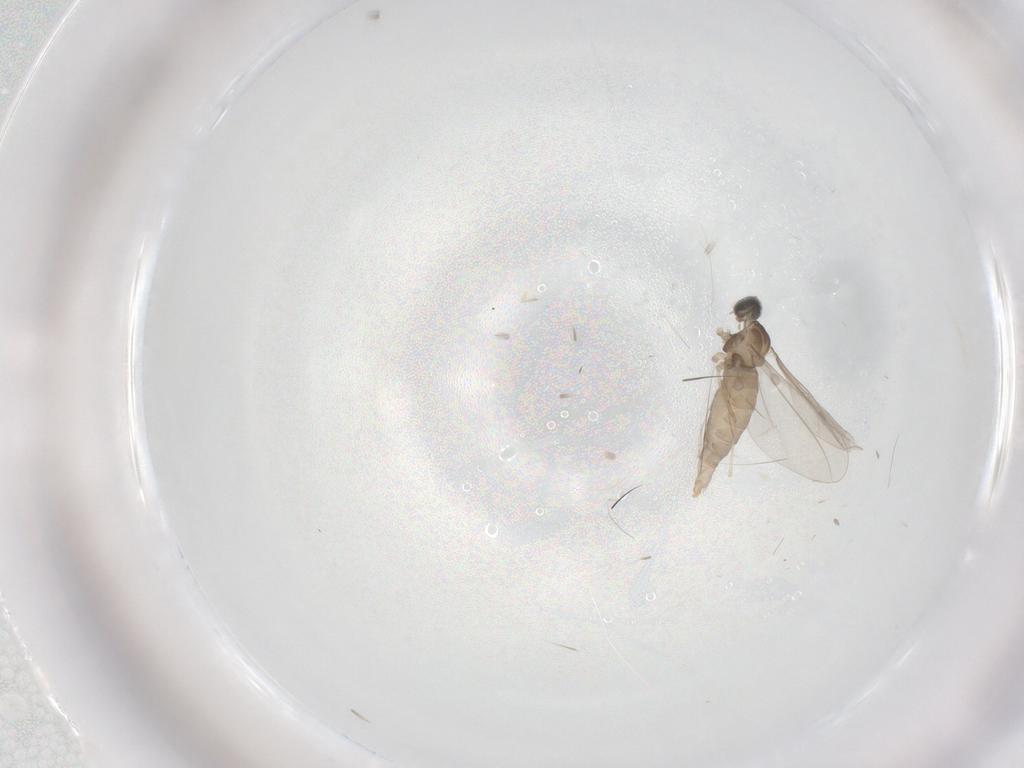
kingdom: Animalia
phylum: Arthropoda
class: Insecta
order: Diptera
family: Cecidomyiidae
